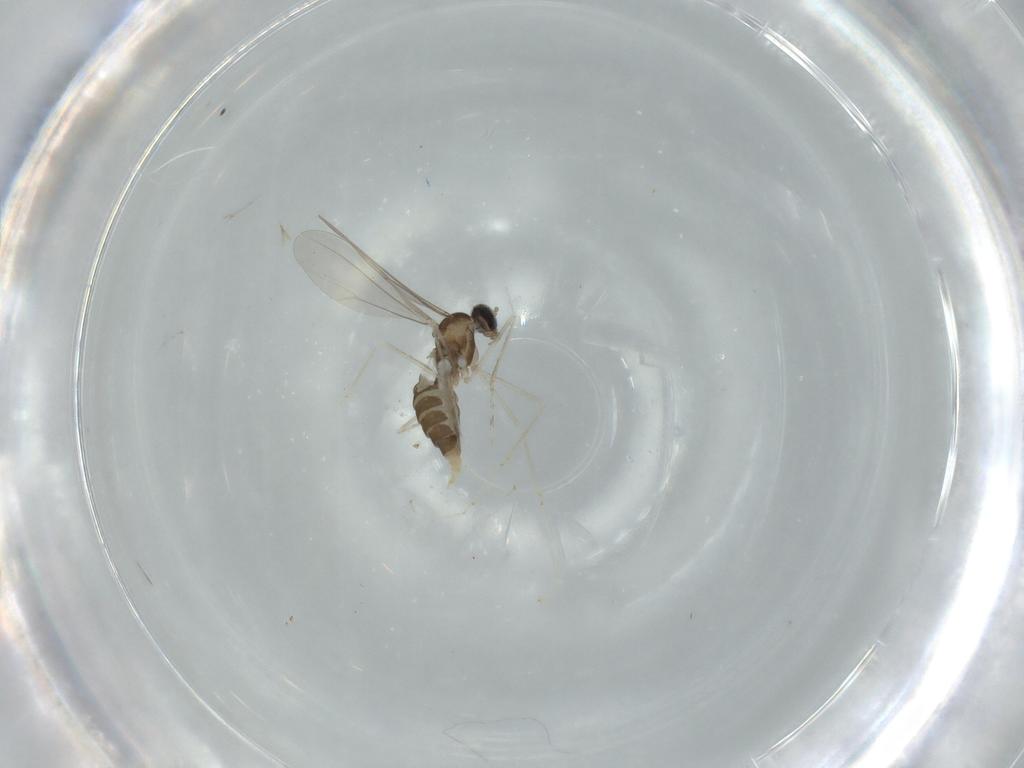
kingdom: Animalia
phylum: Arthropoda
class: Insecta
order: Diptera
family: Cecidomyiidae
